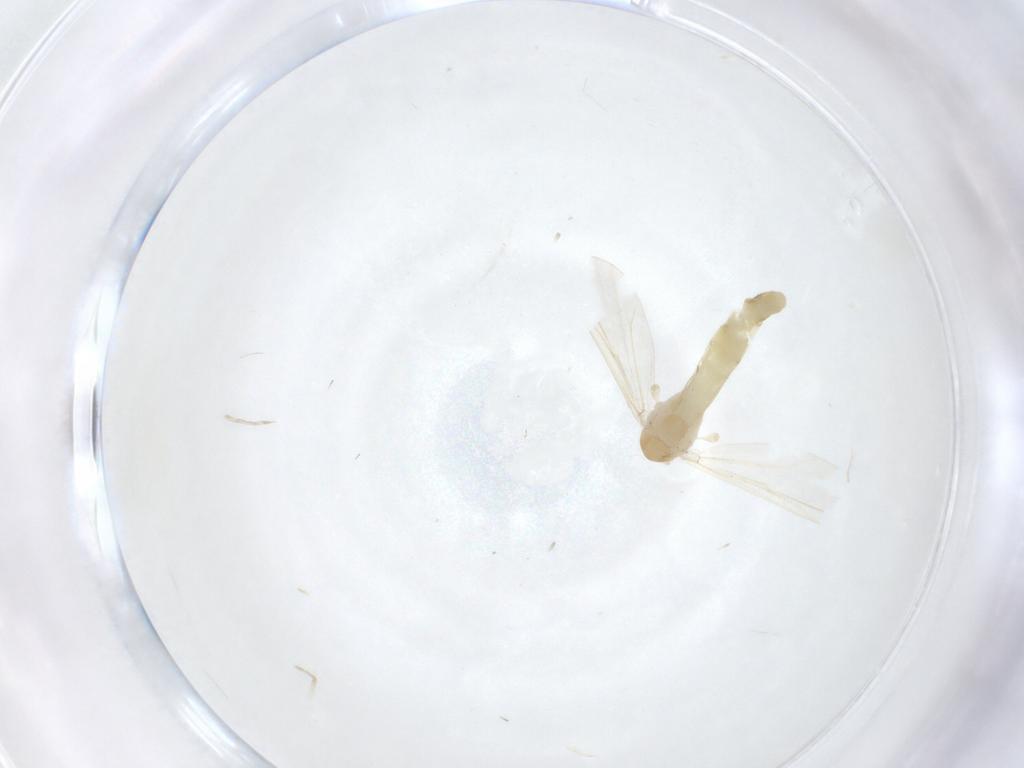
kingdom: Animalia
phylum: Arthropoda
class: Insecta
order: Diptera
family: Chironomidae
